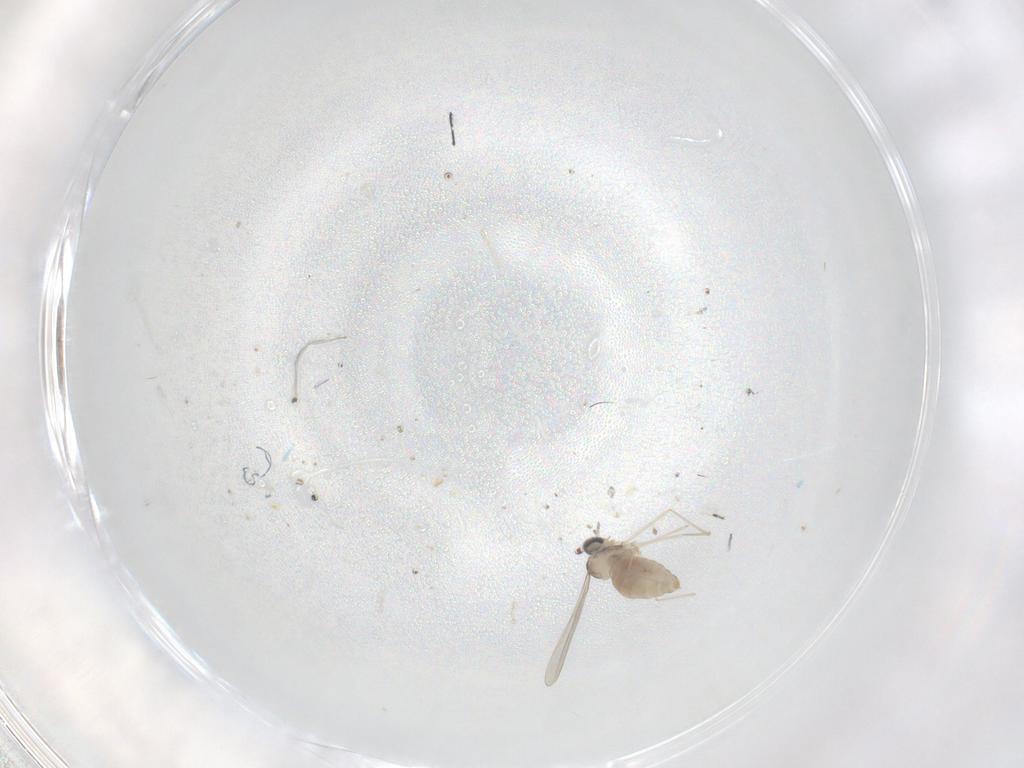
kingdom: Animalia
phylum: Arthropoda
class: Insecta
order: Diptera
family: Cecidomyiidae
